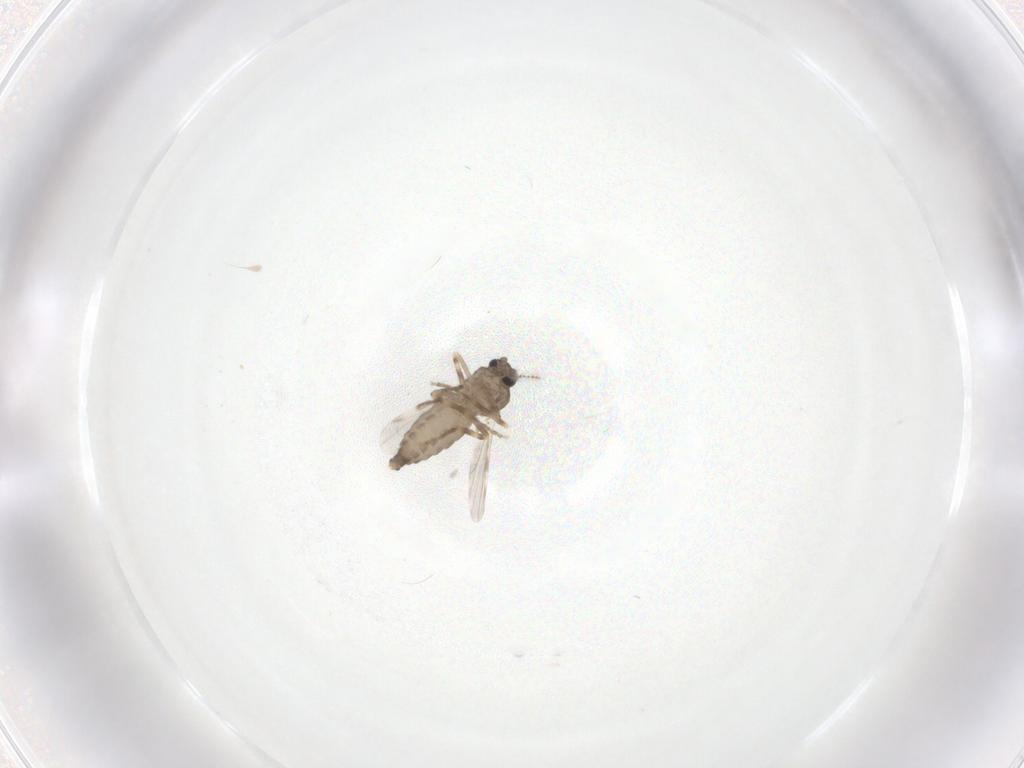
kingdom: Animalia
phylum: Arthropoda
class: Insecta
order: Diptera
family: Ceratopogonidae
